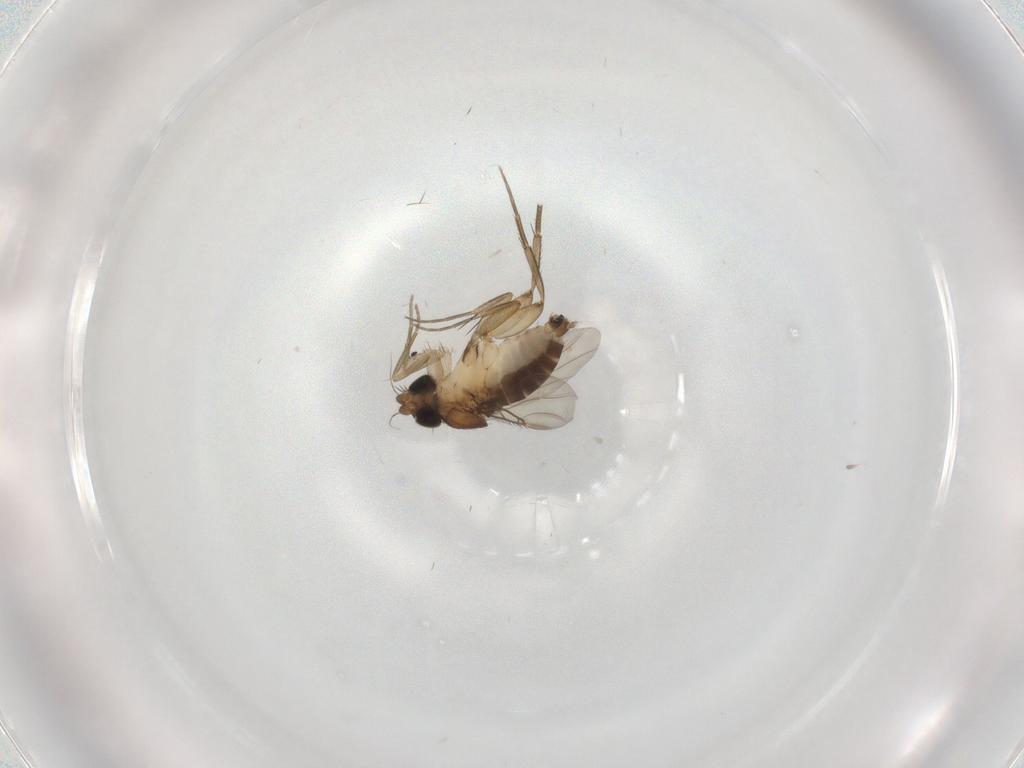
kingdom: Animalia
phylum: Arthropoda
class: Insecta
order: Diptera
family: Phoridae
